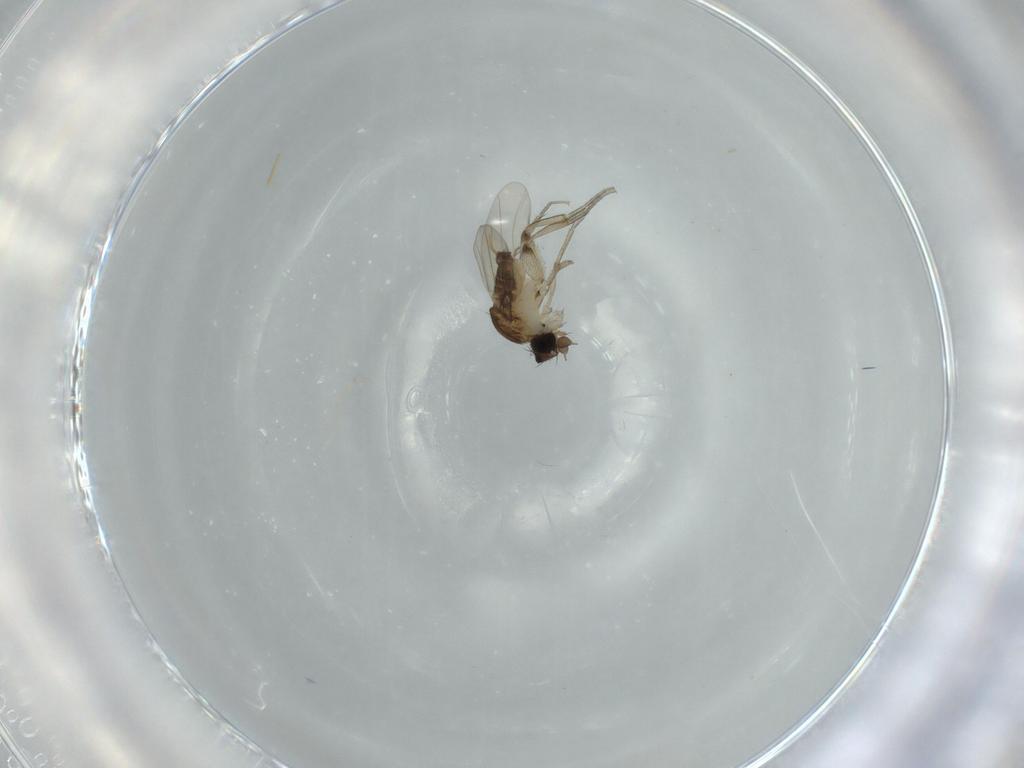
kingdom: Animalia
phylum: Arthropoda
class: Insecta
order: Diptera
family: Phoridae
